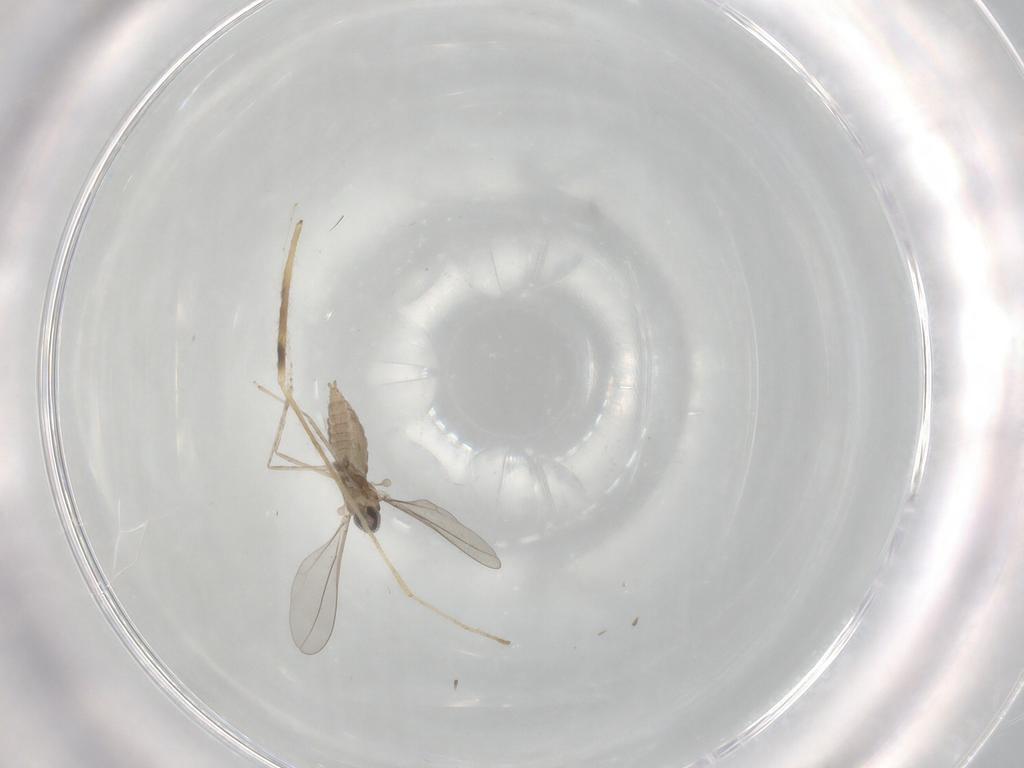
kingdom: Animalia
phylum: Arthropoda
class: Insecta
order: Diptera
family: Cecidomyiidae
